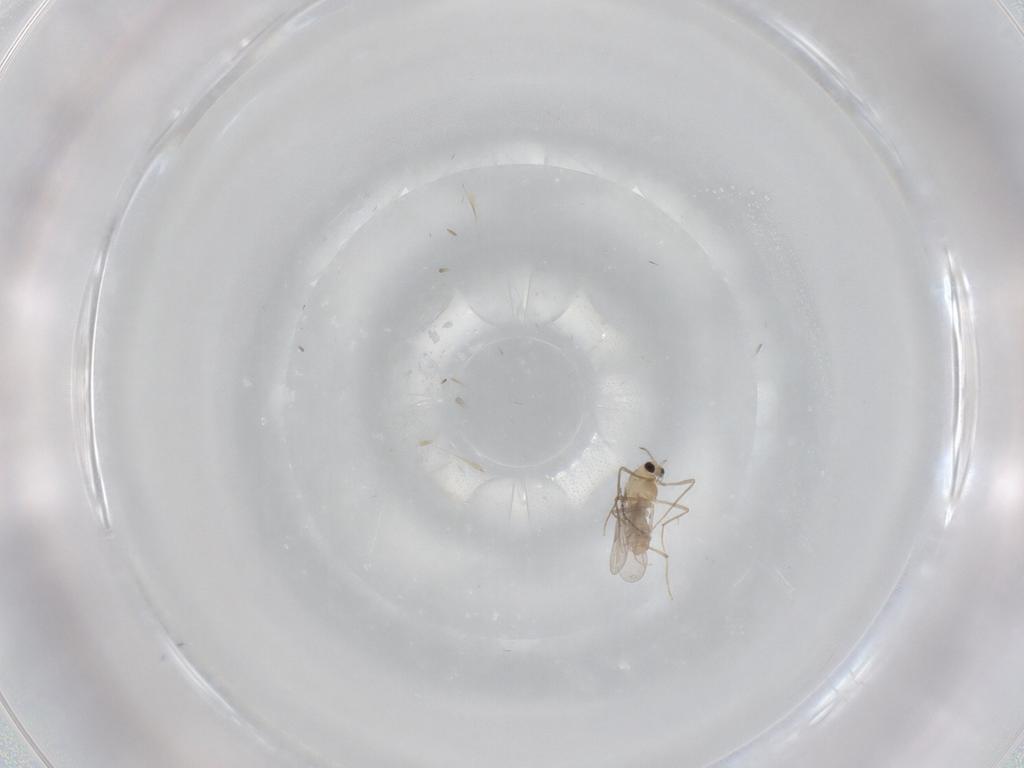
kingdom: Animalia
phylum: Arthropoda
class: Insecta
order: Diptera
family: Chironomidae
